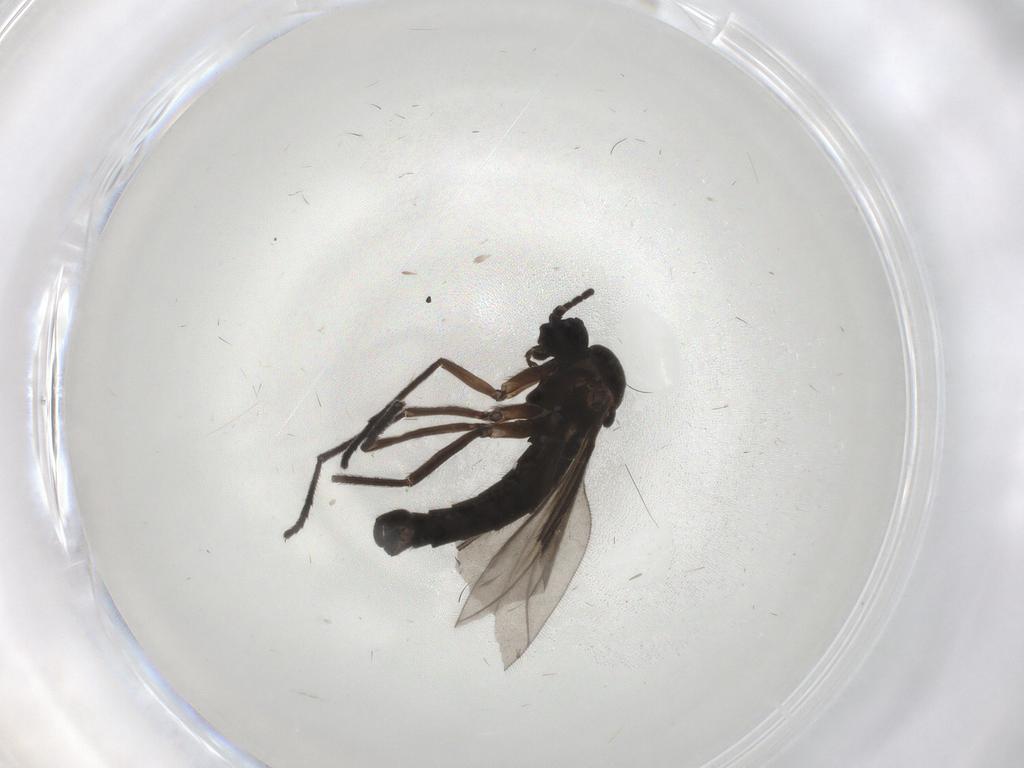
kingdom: Animalia
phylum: Arthropoda
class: Insecta
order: Diptera
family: Sciaridae
